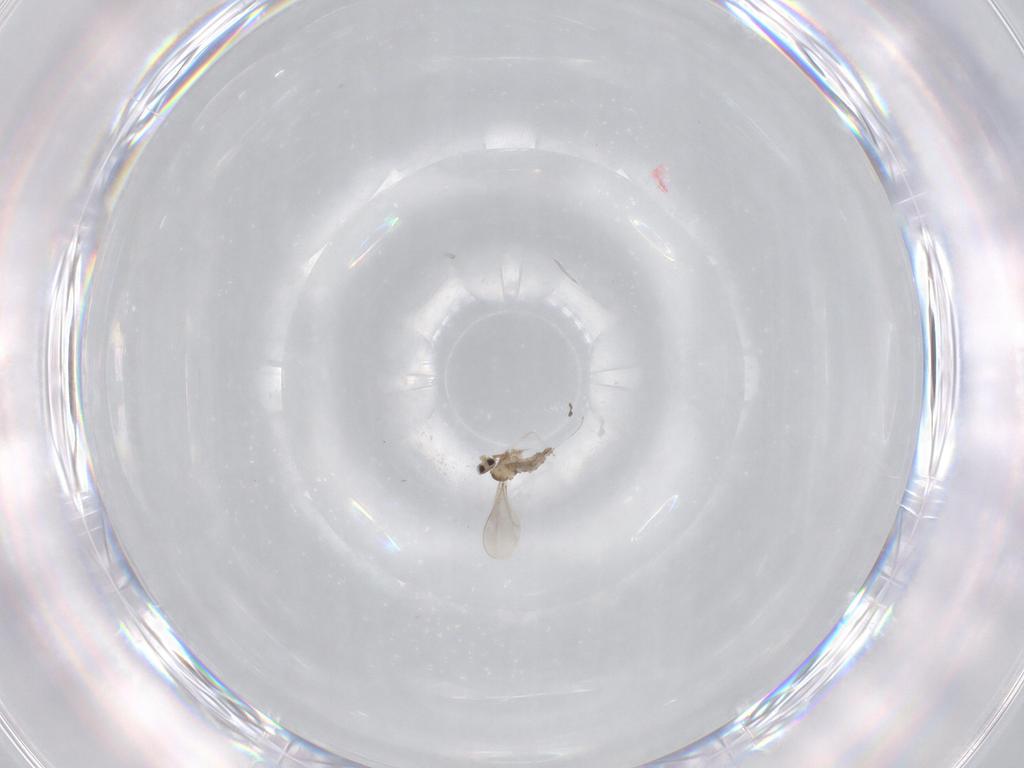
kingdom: Animalia
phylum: Arthropoda
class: Insecta
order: Diptera
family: Cecidomyiidae
